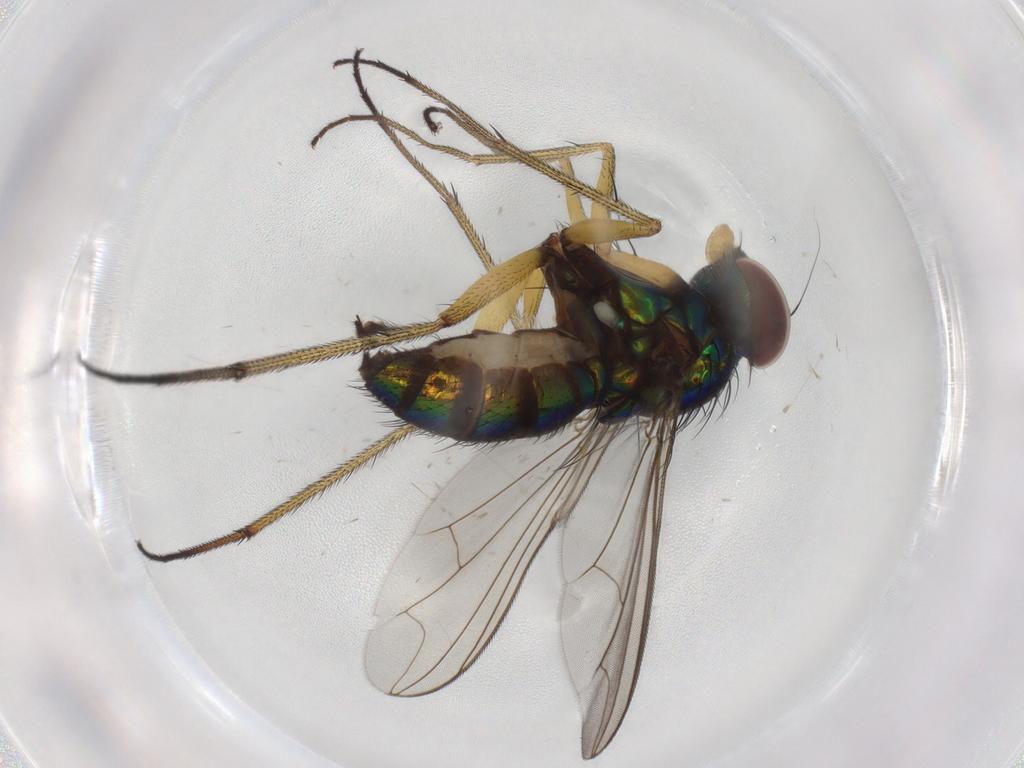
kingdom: Animalia
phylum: Arthropoda
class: Insecta
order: Diptera
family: Dolichopodidae
